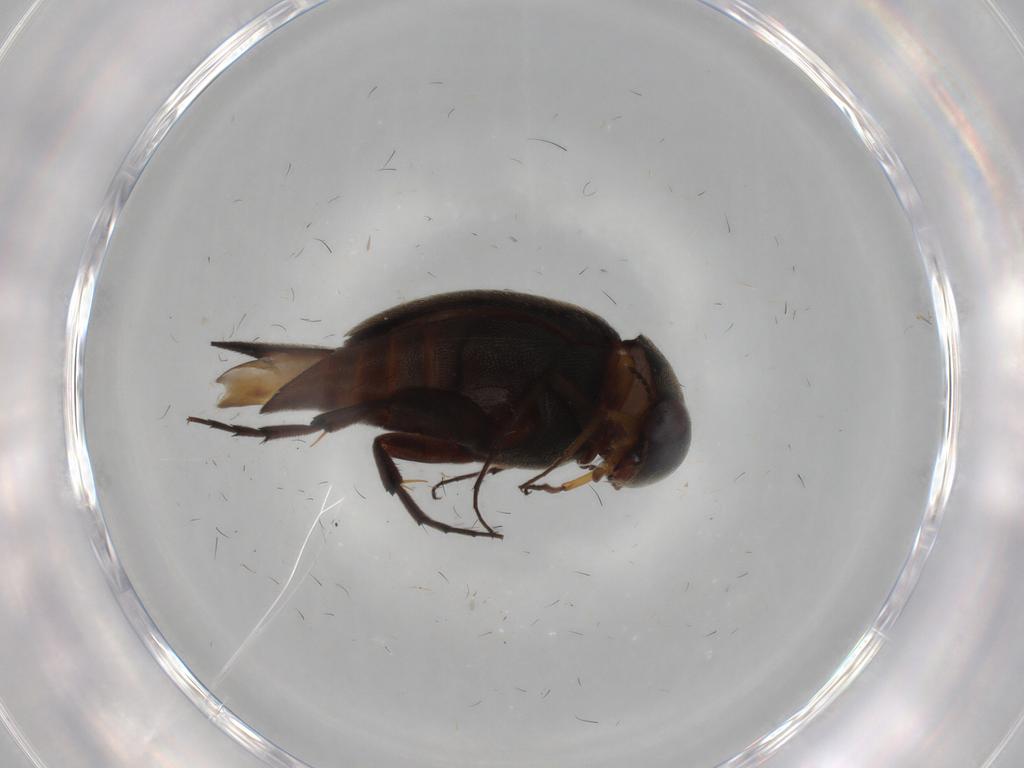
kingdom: Animalia
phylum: Arthropoda
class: Insecta
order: Coleoptera
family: Mordellidae
